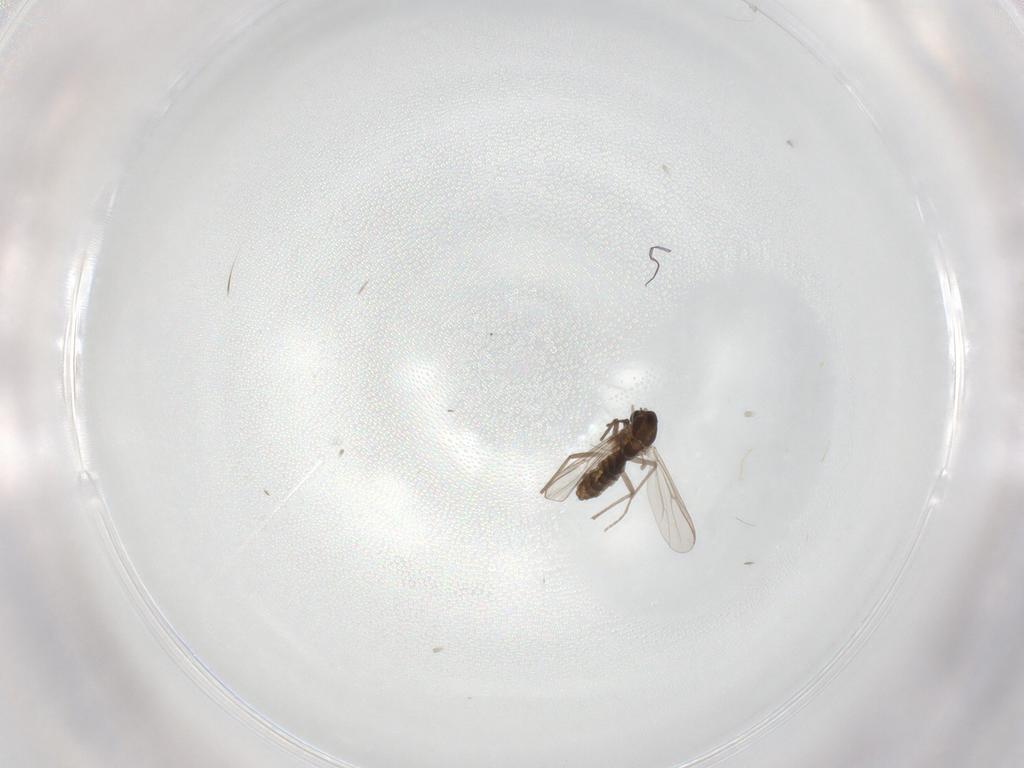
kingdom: Animalia
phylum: Arthropoda
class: Insecta
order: Diptera
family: Chironomidae
